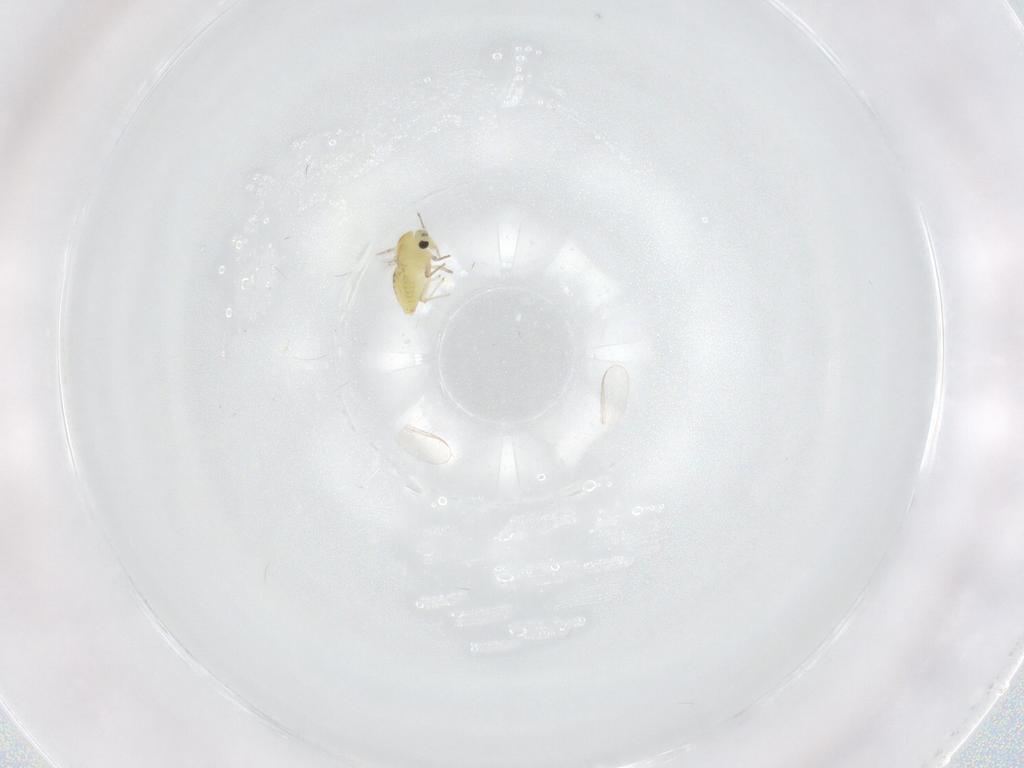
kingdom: Animalia
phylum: Arthropoda
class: Insecta
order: Diptera
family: Chironomidae
